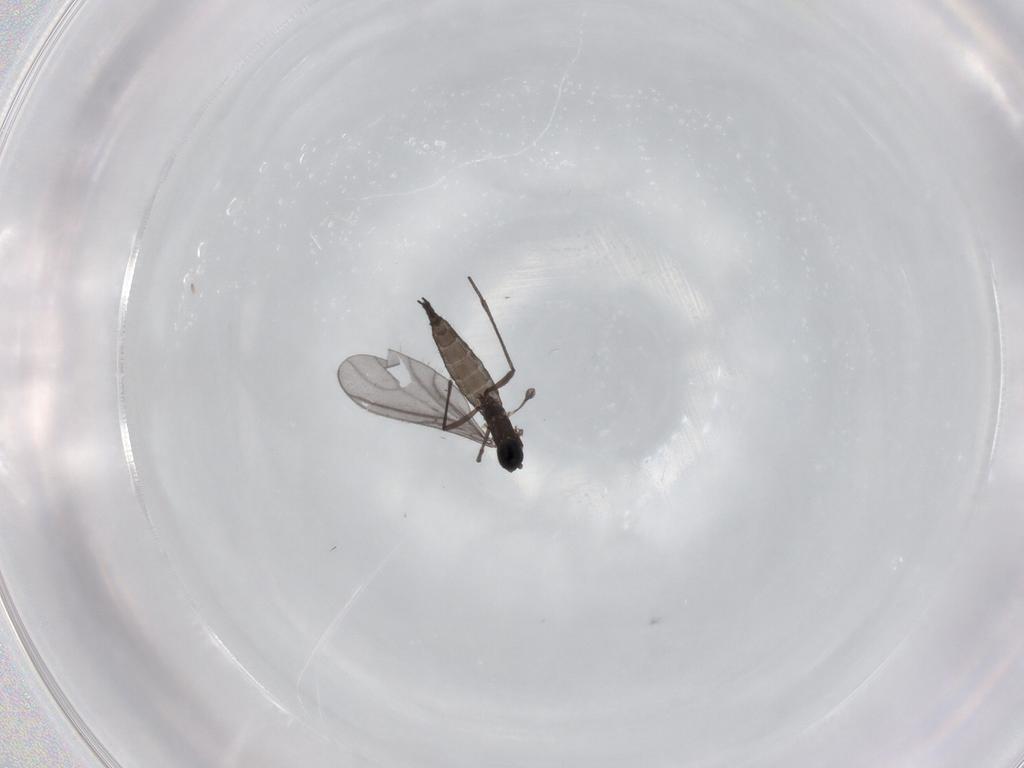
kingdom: Animalia
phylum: Arthropoda
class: Insecta
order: Diptera
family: Sciaridae
